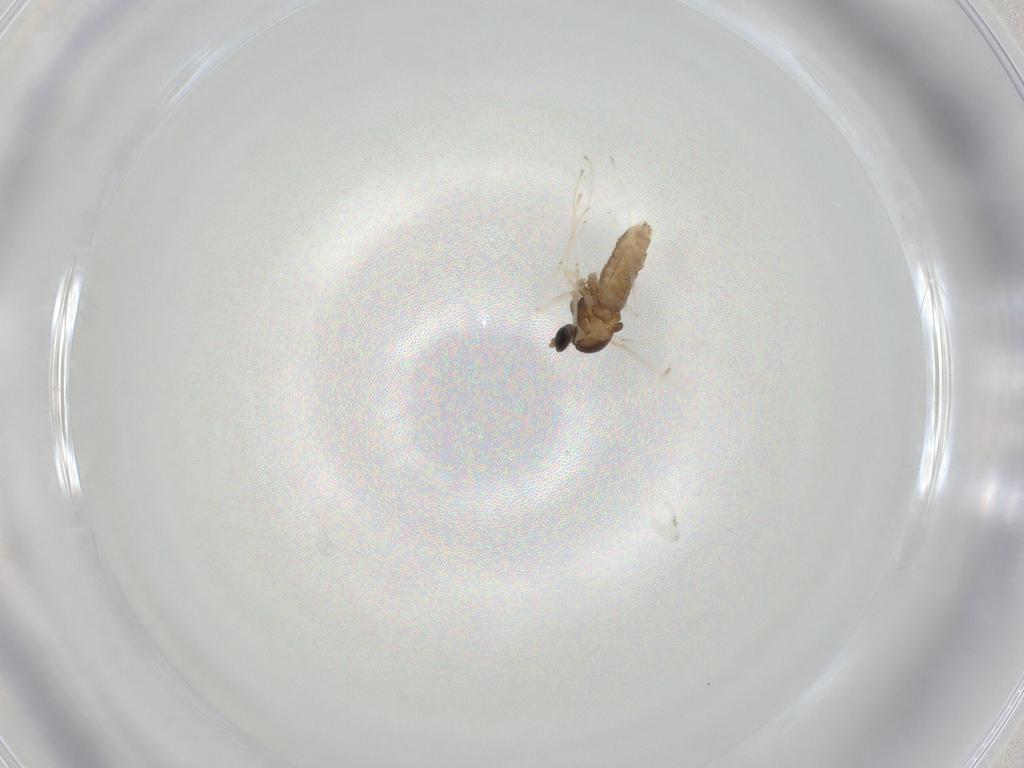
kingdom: Animalia
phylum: Arthropoda
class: Insecta
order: Diptera
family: Cecidomyiidae
